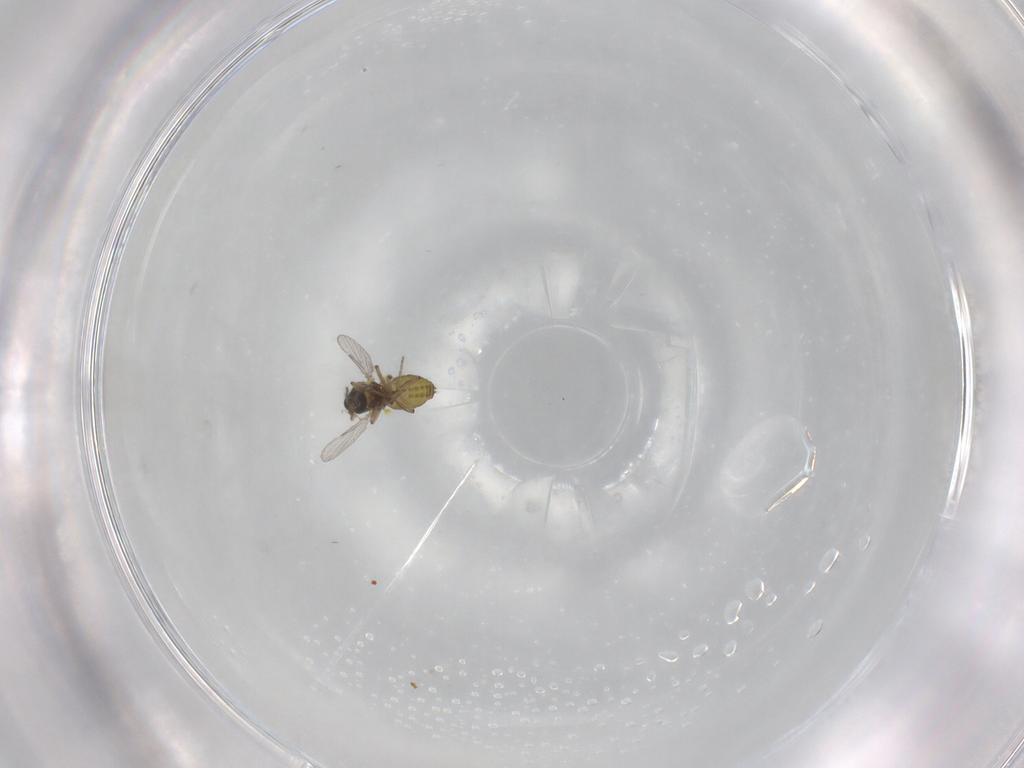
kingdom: Animalia
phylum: Arthropoda
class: Insecta
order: Diptera
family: Ceratopogonidae
